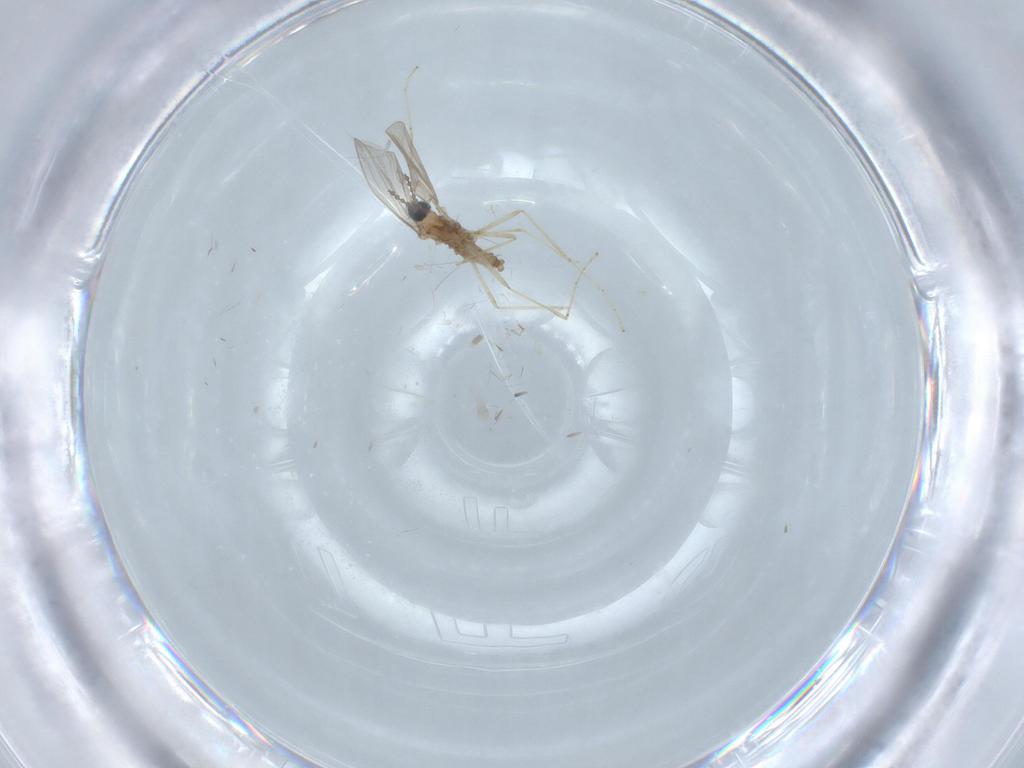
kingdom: Animalia
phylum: Arthropoda
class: Insecta
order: Diptera
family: Cecidomyiidae
